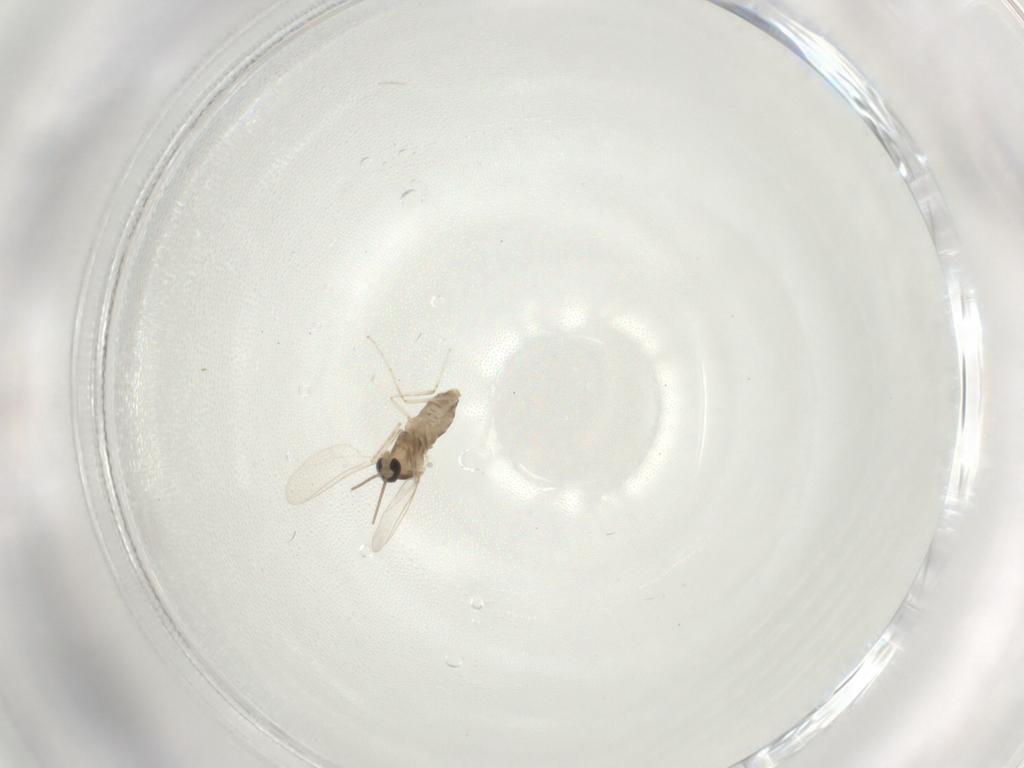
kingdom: Animalia
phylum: Arthropoda
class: Insecta
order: Diptera
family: Cecidomyiidae
